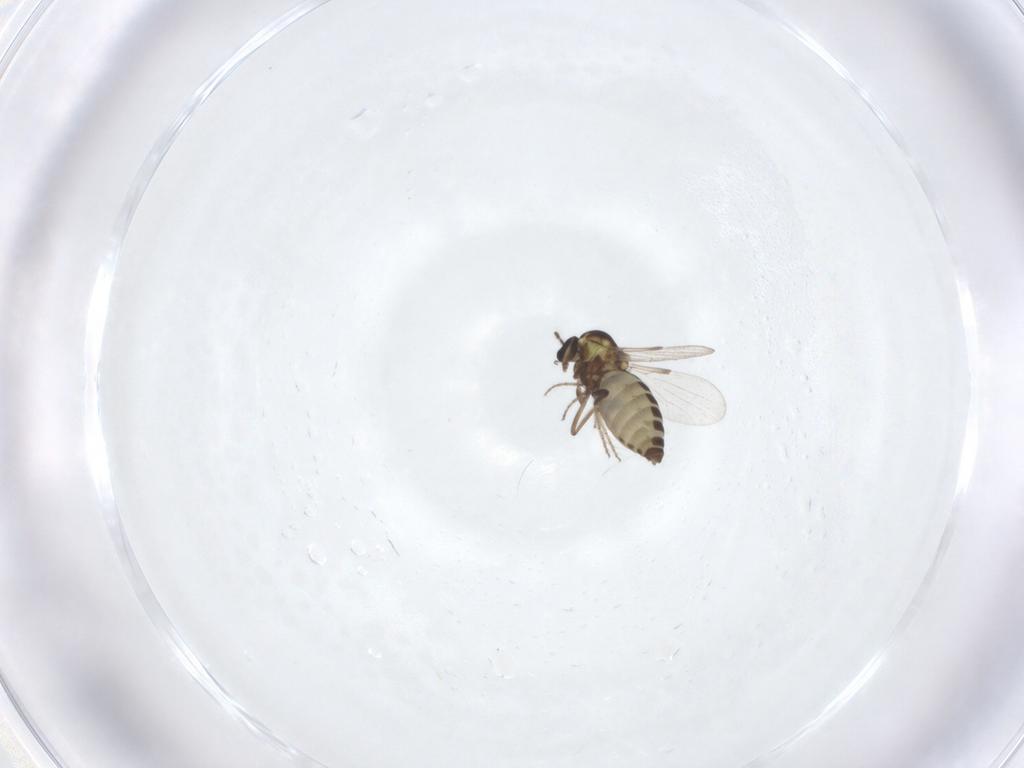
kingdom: Animalia
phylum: Arthropoda
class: Insecta
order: Diptera
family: Ceratopogonidae
